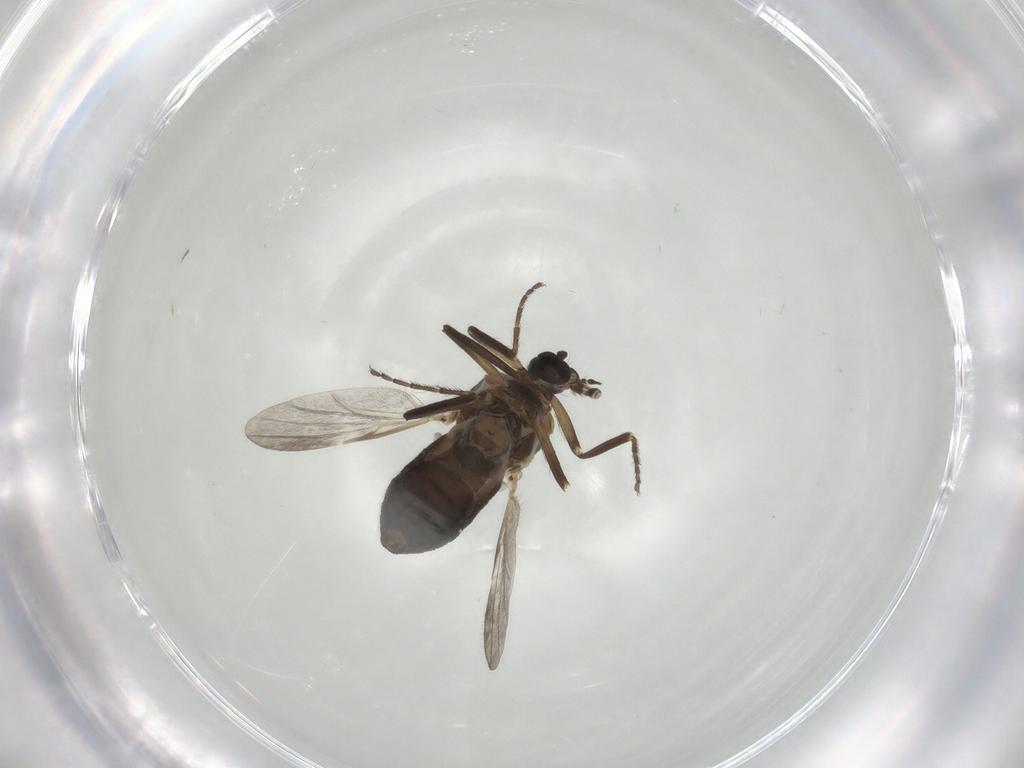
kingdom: Animalia
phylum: Arthropoda
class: Insecta
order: Diptera
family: Ceratopogonidae
